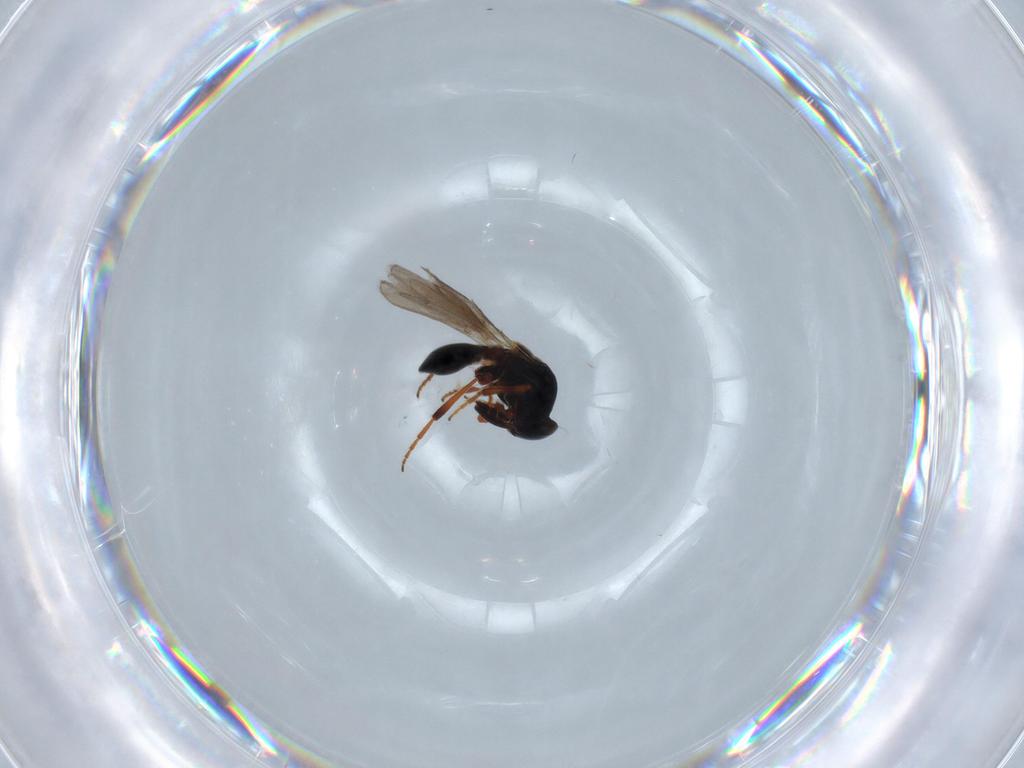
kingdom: Animalia
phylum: Arthropoda
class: Insecta
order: Hymenoptera
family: Platygastridae
